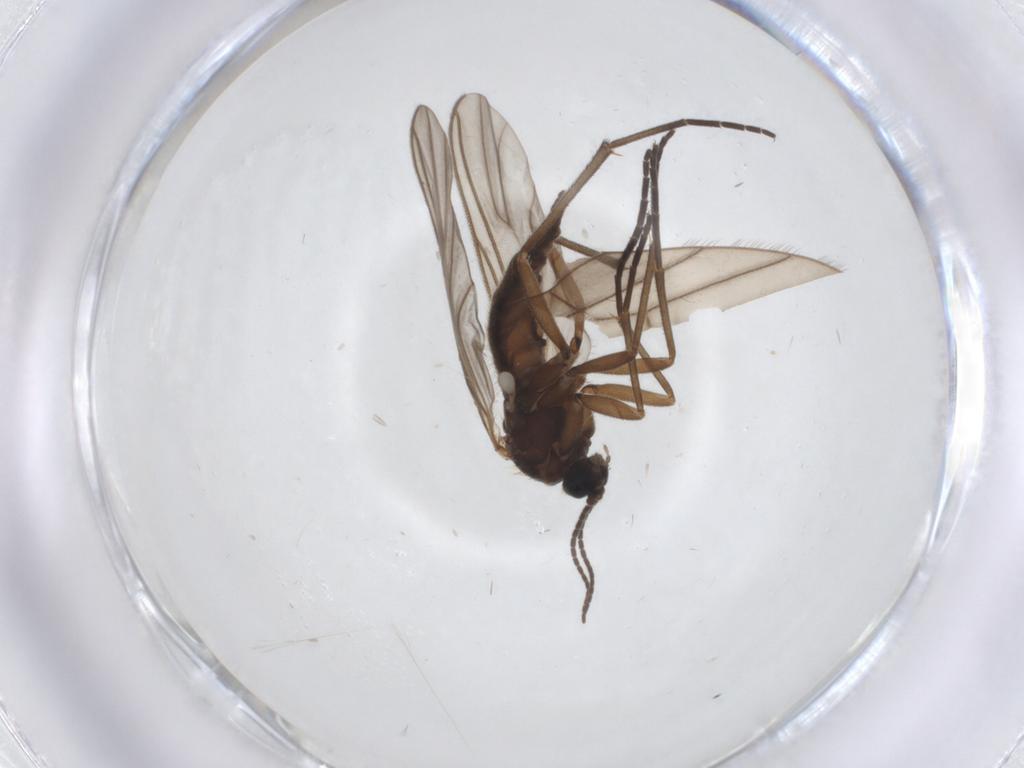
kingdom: Animalia
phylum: Arthropoda
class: Insecta
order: Diptera
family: Sciaridae
